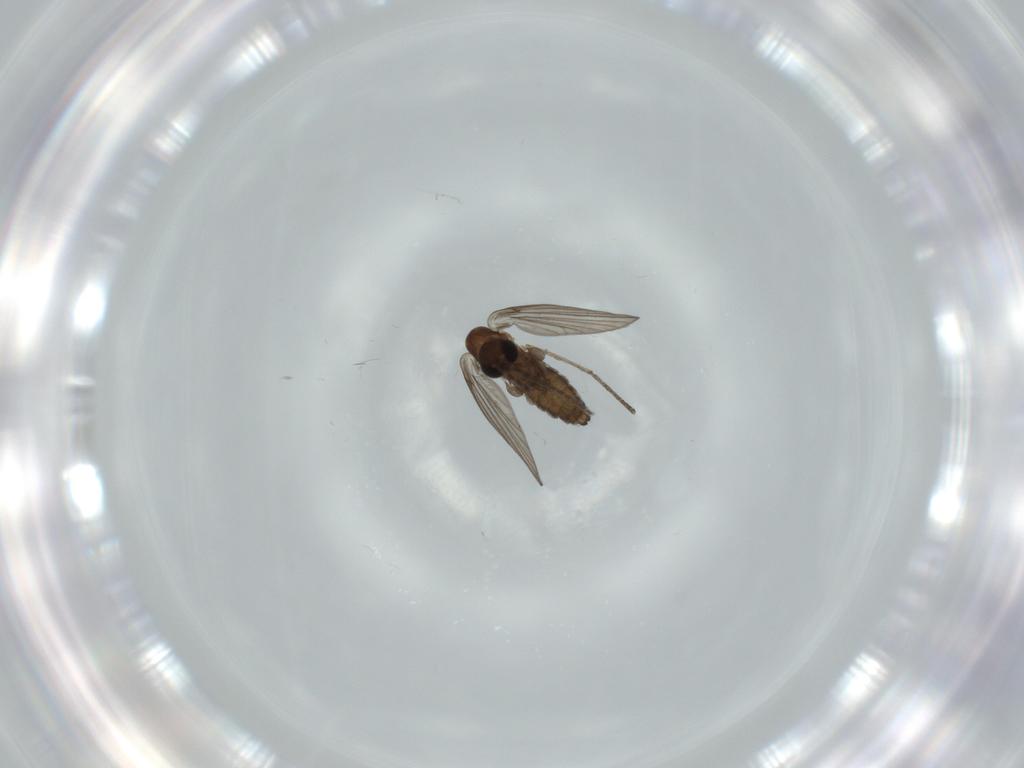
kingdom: Animalia
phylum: Arthropoda
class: Insecta
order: Diptera
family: Psychodidae
